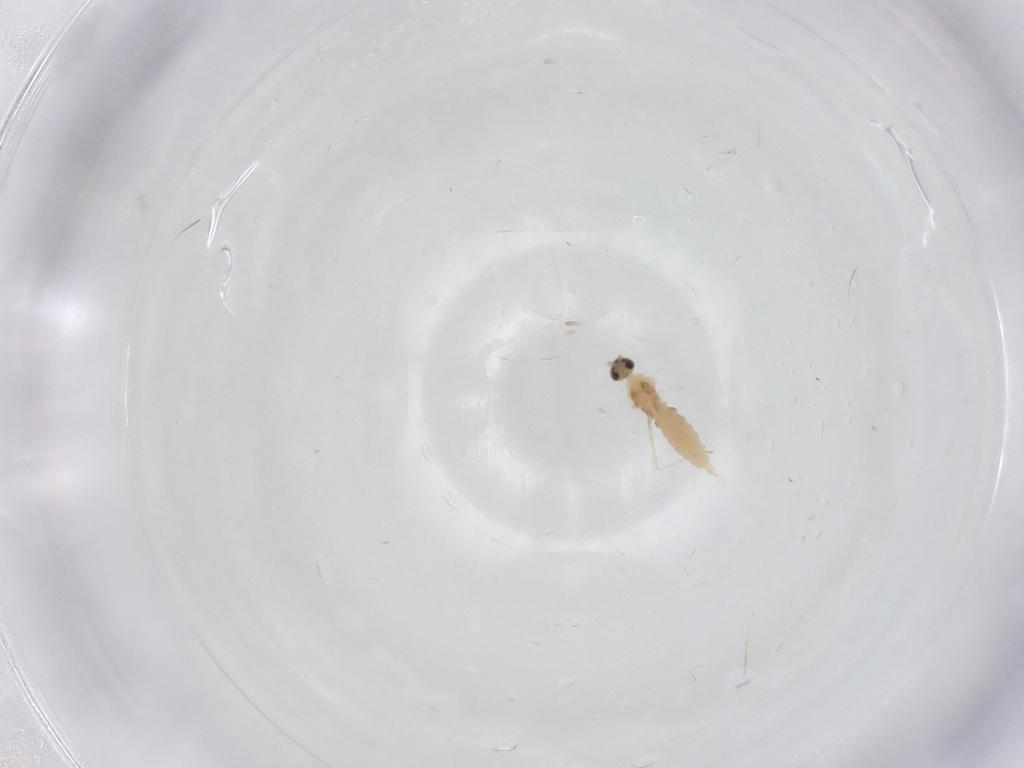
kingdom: Animalia
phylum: Arthropoda
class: Insecta
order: Diptera
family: Cecidomyiidae
